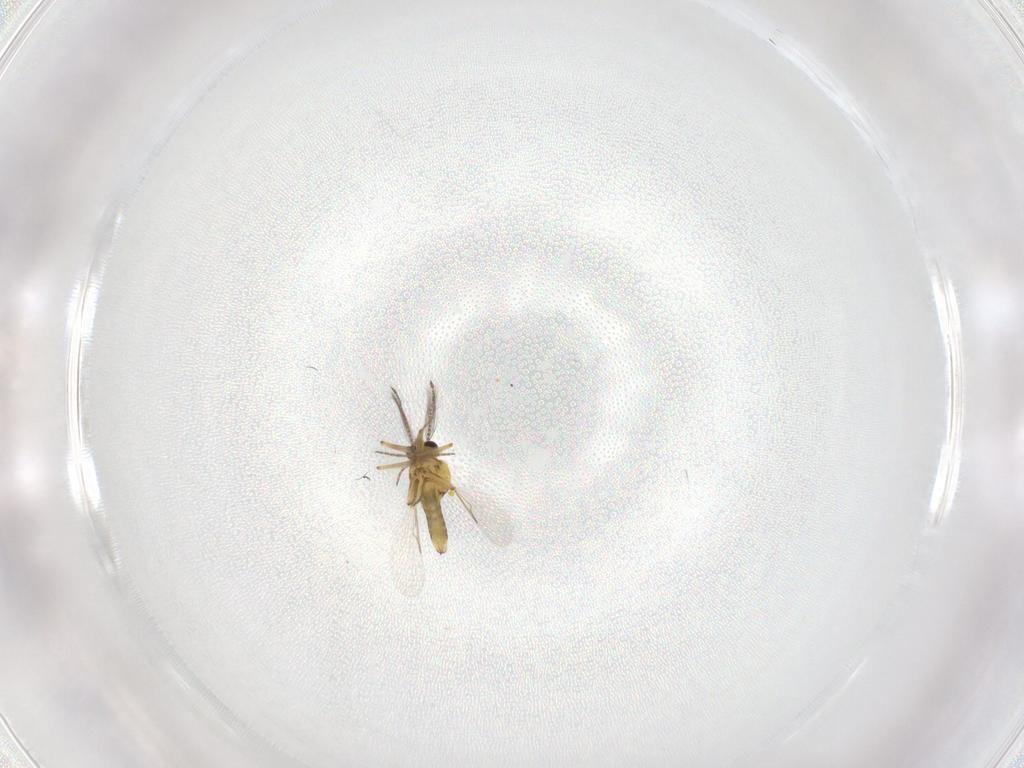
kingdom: Animalia
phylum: Arthropoda
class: Insecta
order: Diptera
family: Ceratopogonidae
